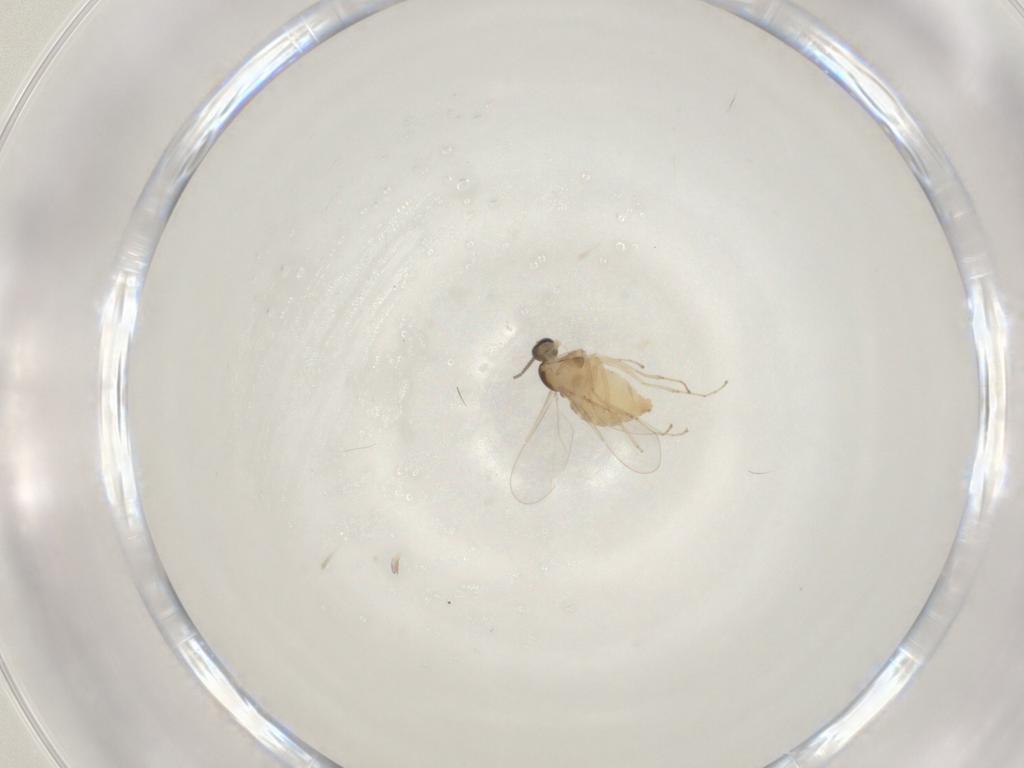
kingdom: Animalia
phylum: Arthropoda
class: Insecta
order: Diptera
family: Cecidomyiidae
